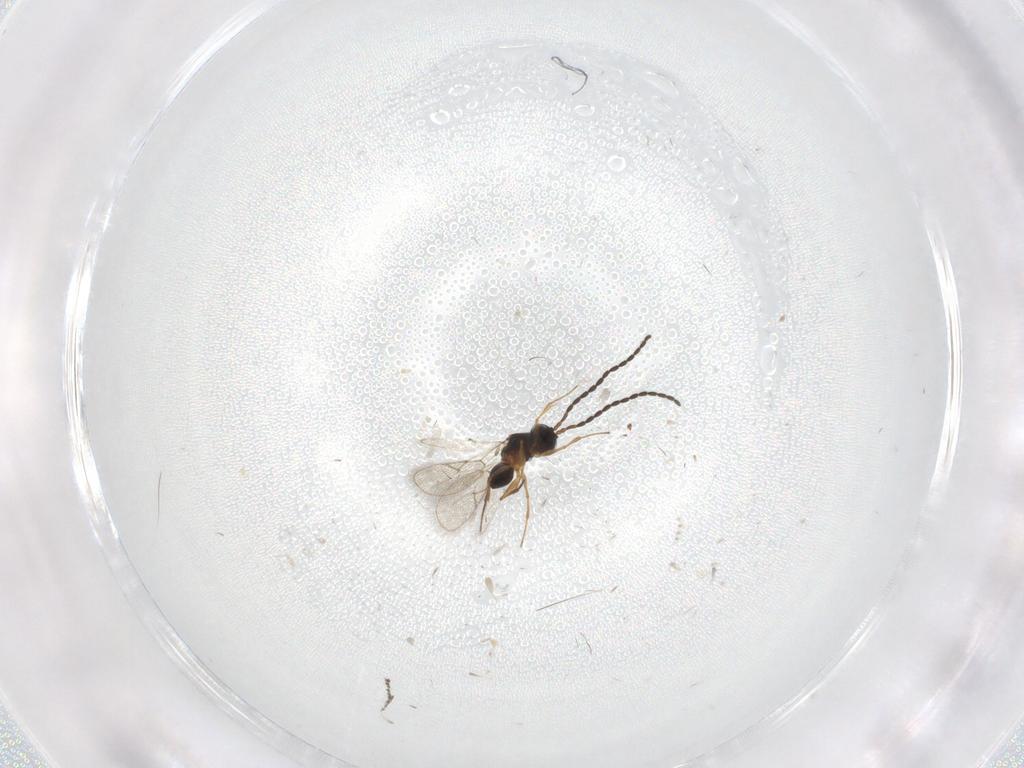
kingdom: Animalia
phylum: Arthropoda
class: Insecta
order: Hymenoptera
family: Figitidae
